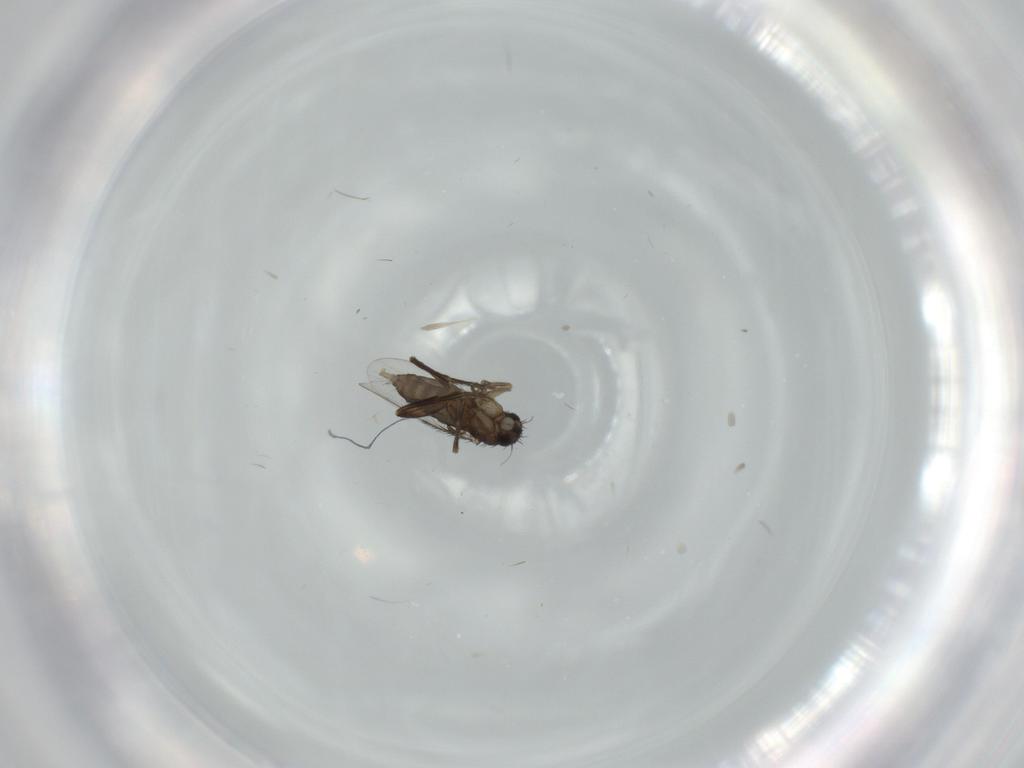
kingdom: Animalia
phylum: Arthropoda
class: Insecta
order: Diptera
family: Phoridae
